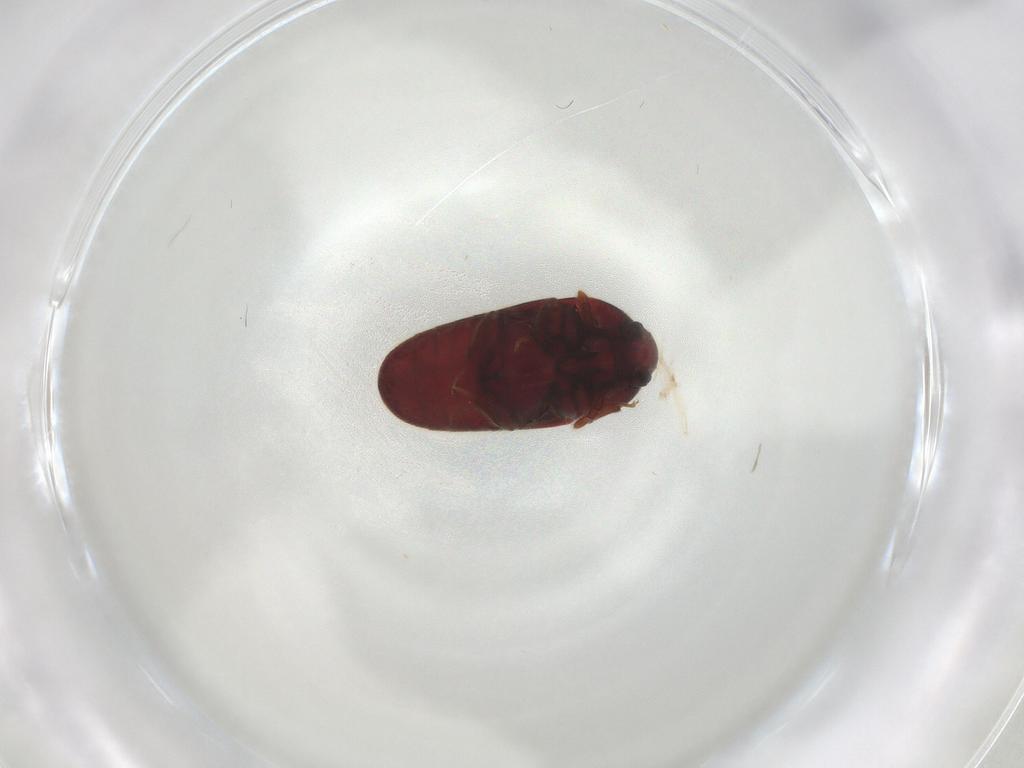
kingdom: Animalia
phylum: Arthropoda
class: Insecta
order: Coleoptera
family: Throscidae
